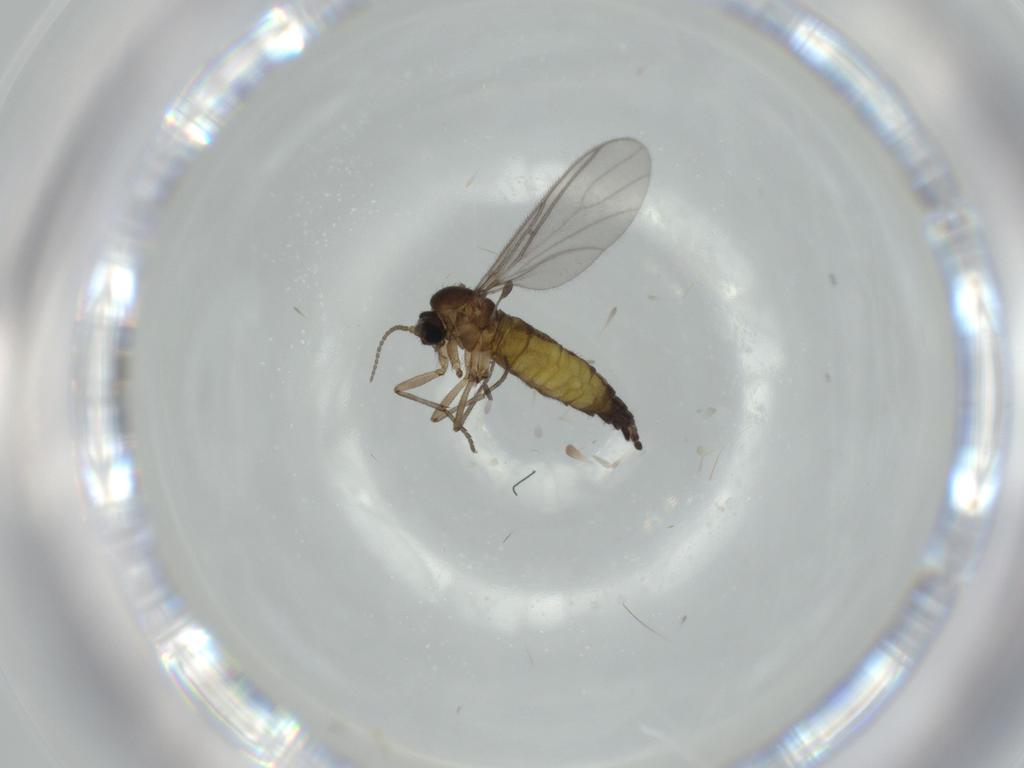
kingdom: Animalia
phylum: Arthropoda
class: Insecta
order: Diptera
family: Sciaridae
